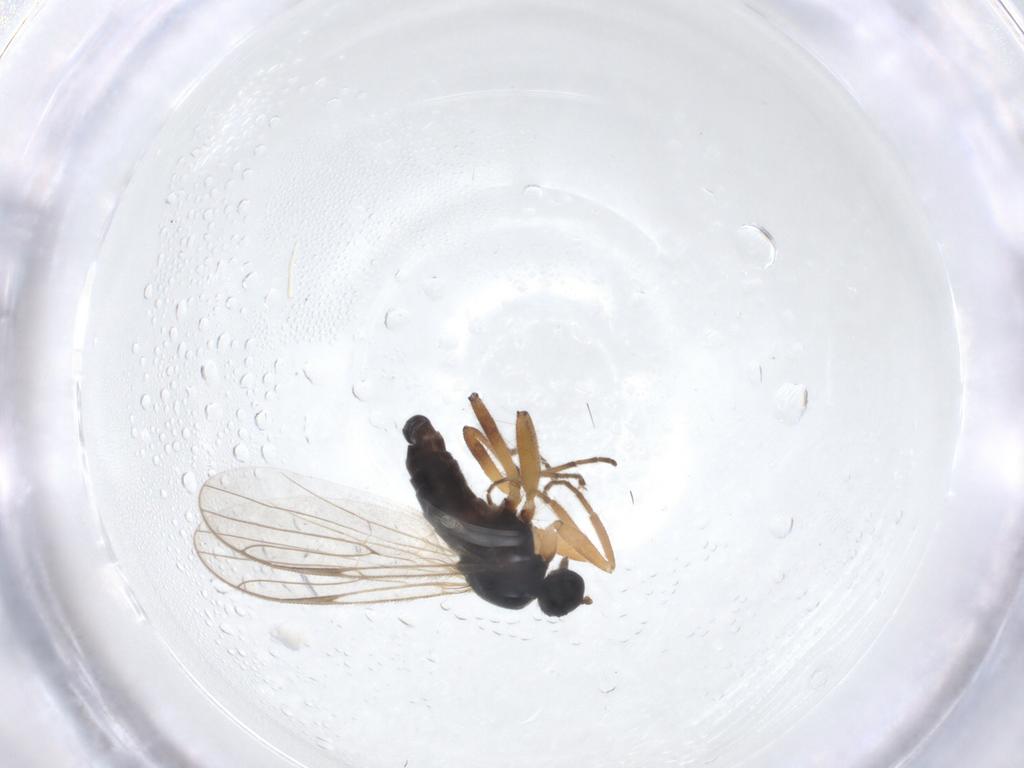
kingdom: Animalia
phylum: Arthropoda
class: Insecta
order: Diptera
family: Hybotidae
